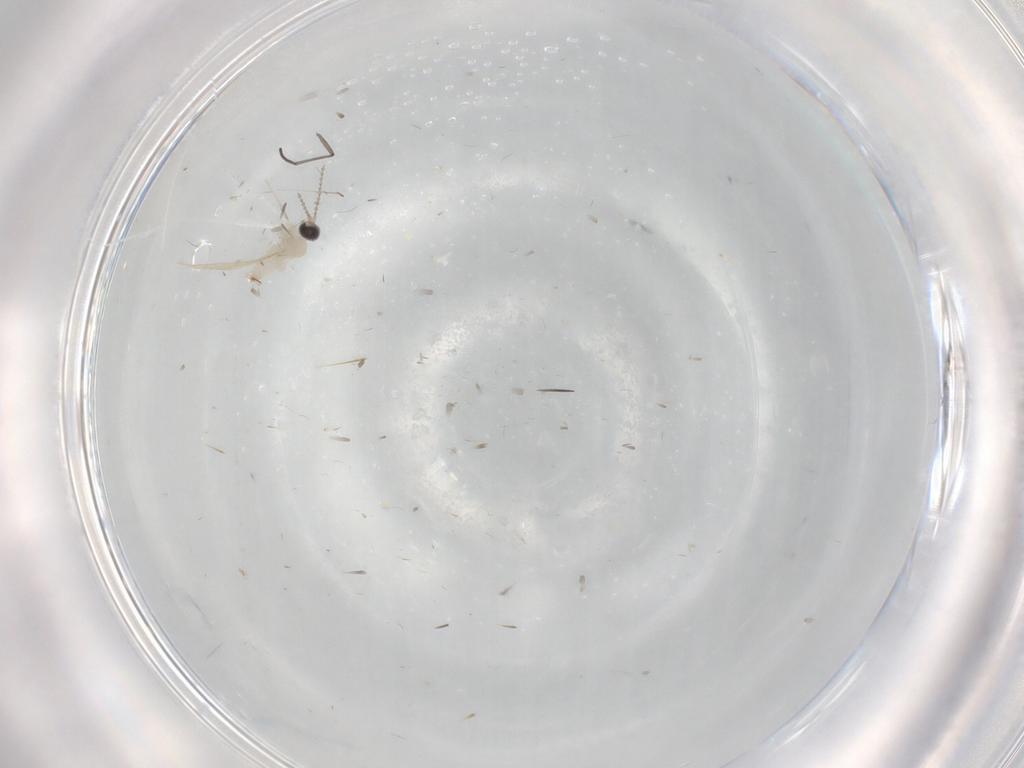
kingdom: Animalia
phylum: Arthropoda
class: Insecta
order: Diptera
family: Cecidomyiidae
